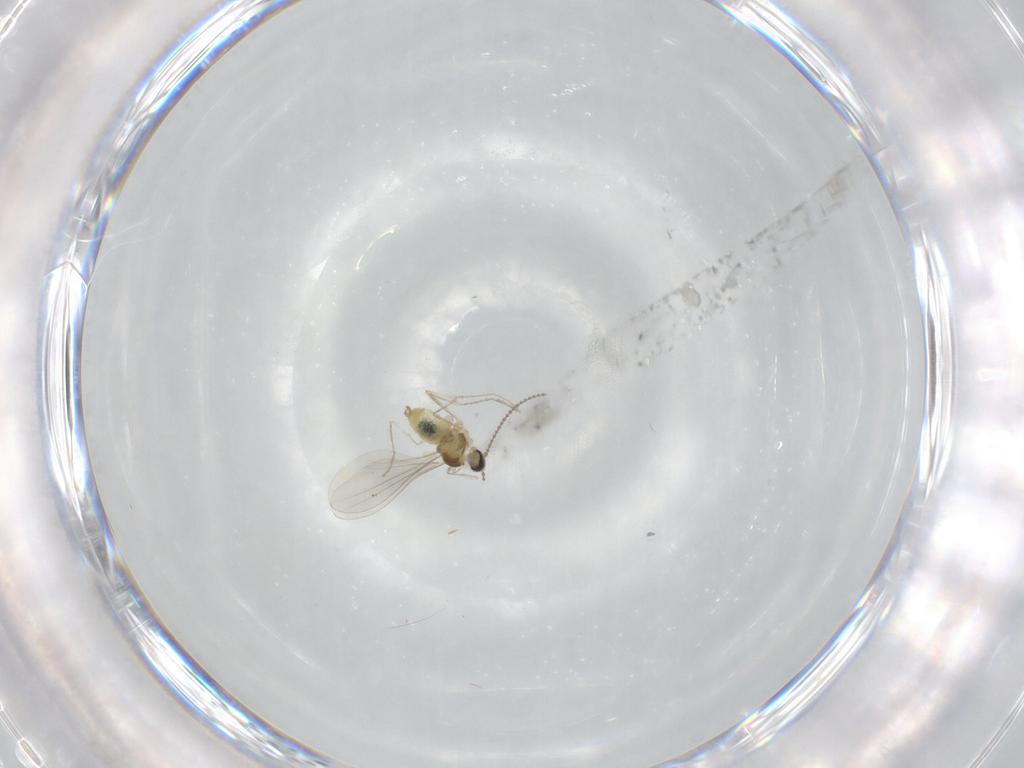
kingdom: Animalia
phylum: Arthropoda
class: Insecta
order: Diptera
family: Cecidomyiidae
